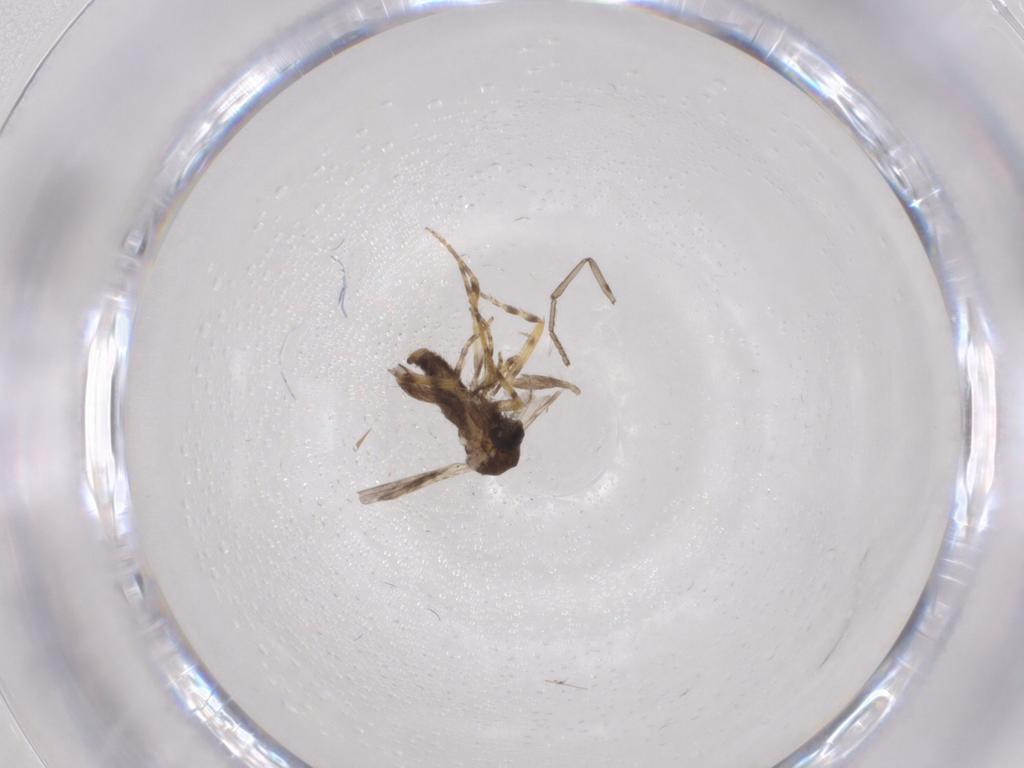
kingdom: Animalia
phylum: Arthropoda
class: Insecta
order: Diptera
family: Ceratopogonidae
